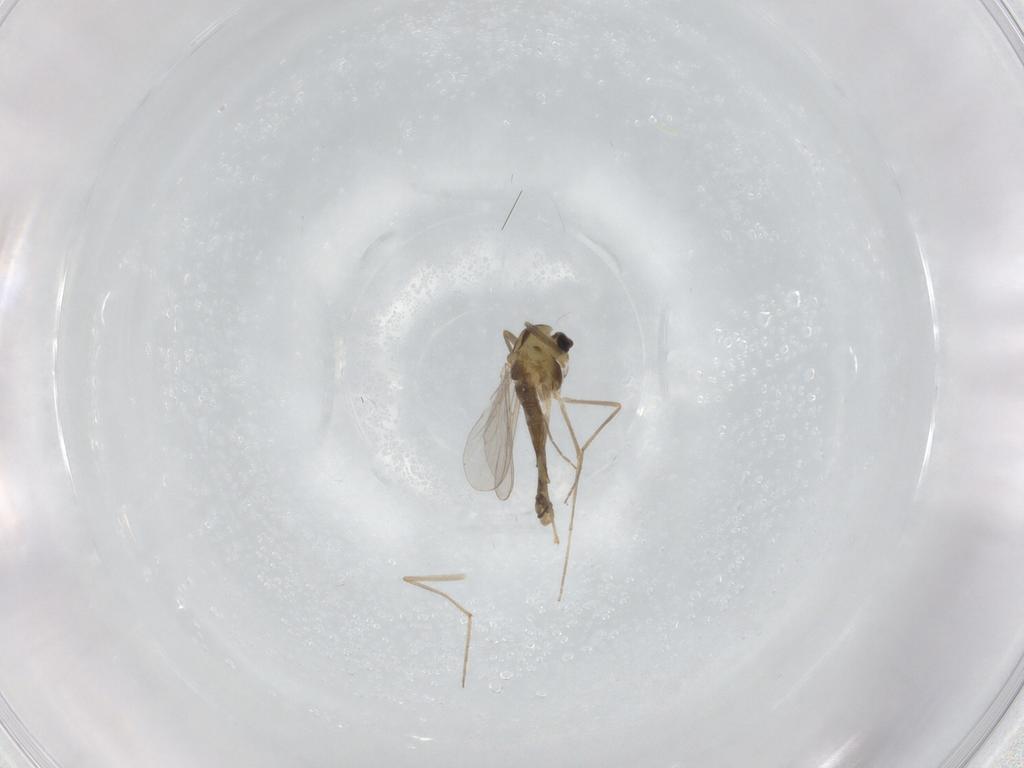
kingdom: Animalia
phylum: Arthropoda
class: Insecta
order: Diptera
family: Chironomidae
